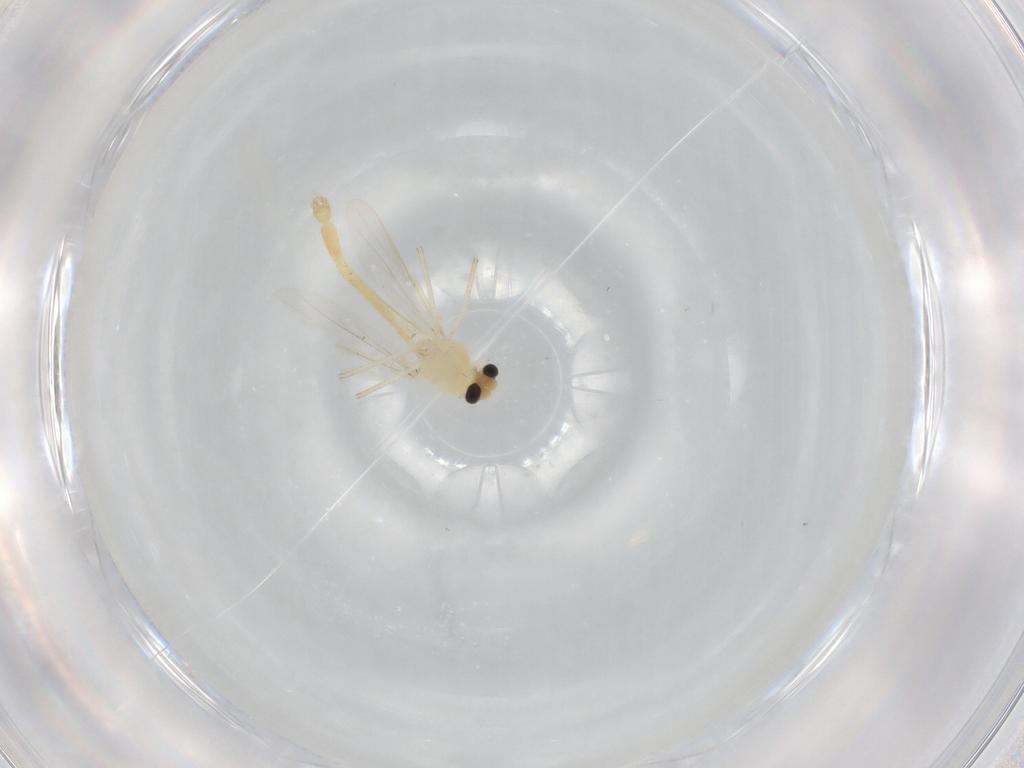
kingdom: Animalia
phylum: Arthropoda
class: Insecta
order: Diptera
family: Chironomidae
